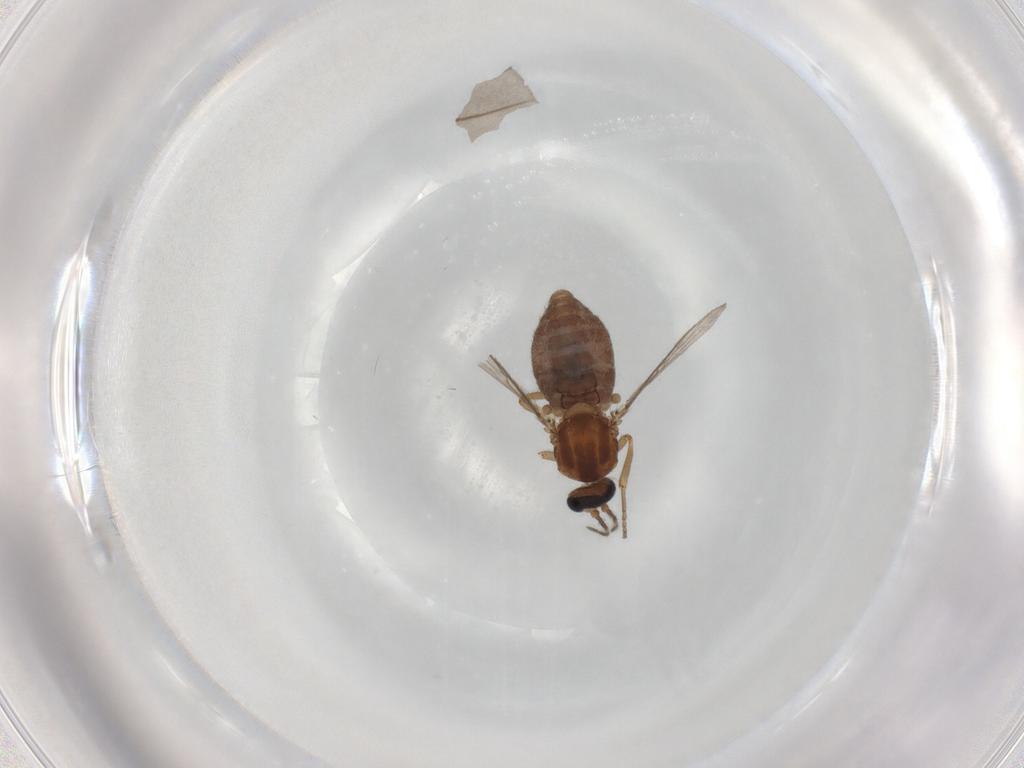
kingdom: Animalia
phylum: Arthropoda
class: Insecta
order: Diptera
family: Ceratopogonidae
